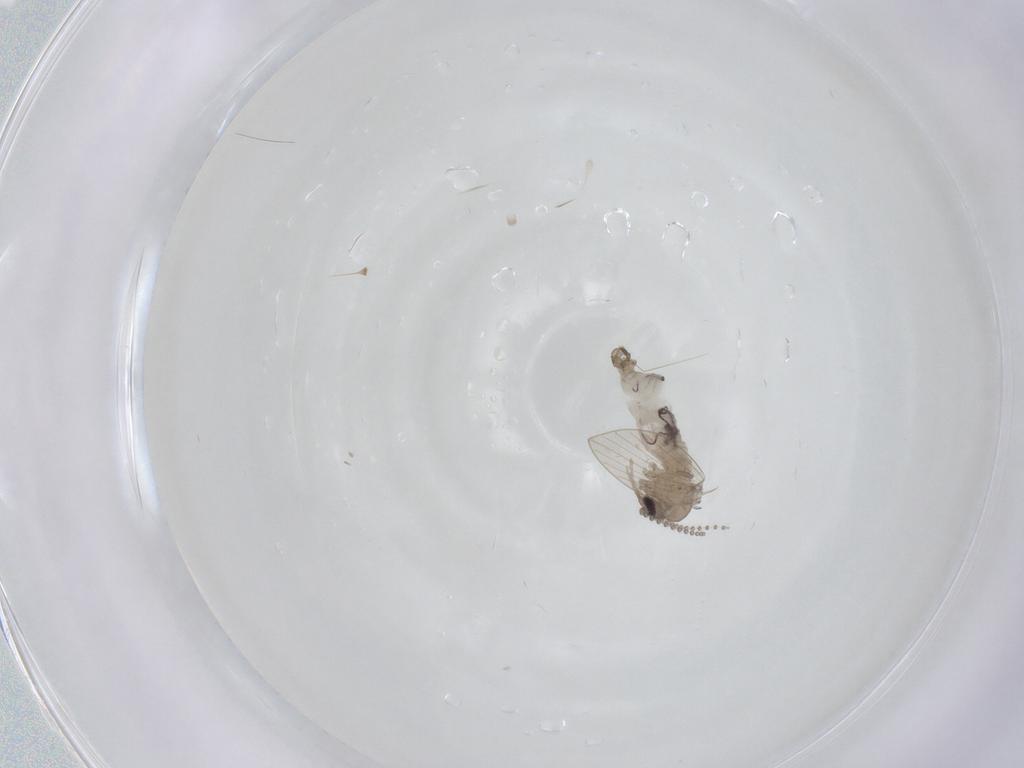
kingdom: Animalia
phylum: Arthropoda
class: Insecta
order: Diptera
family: Psychodidae
